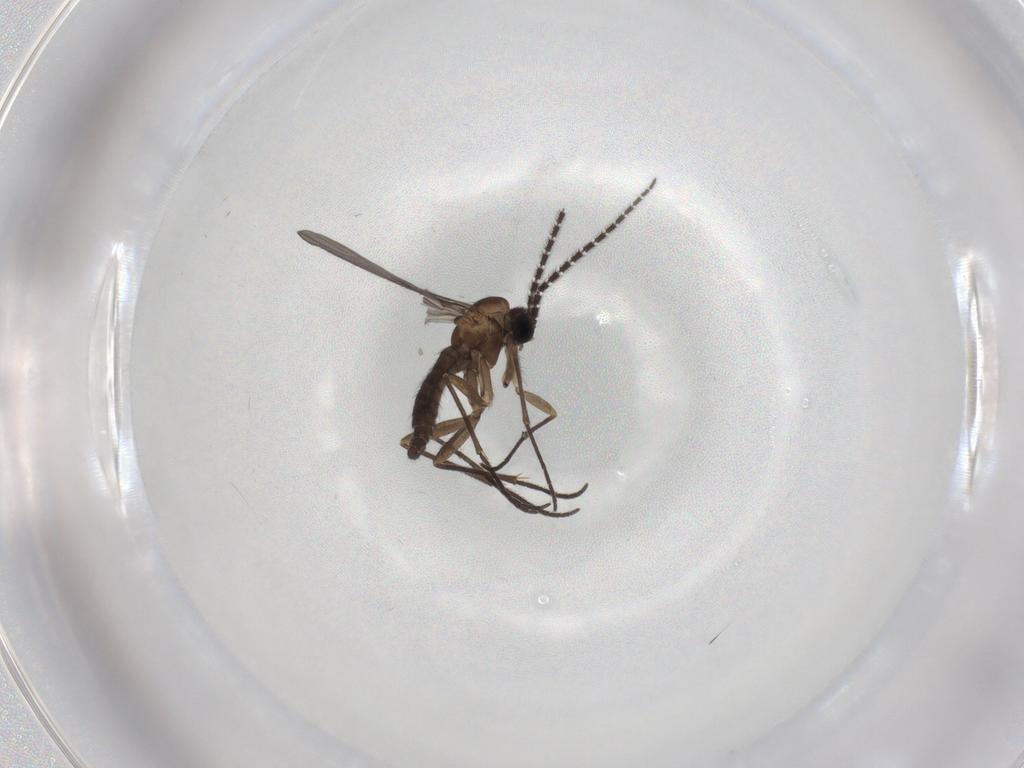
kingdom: Animalia
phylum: Arthropoda
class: Insecta
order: Diptera
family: Sciaridae
